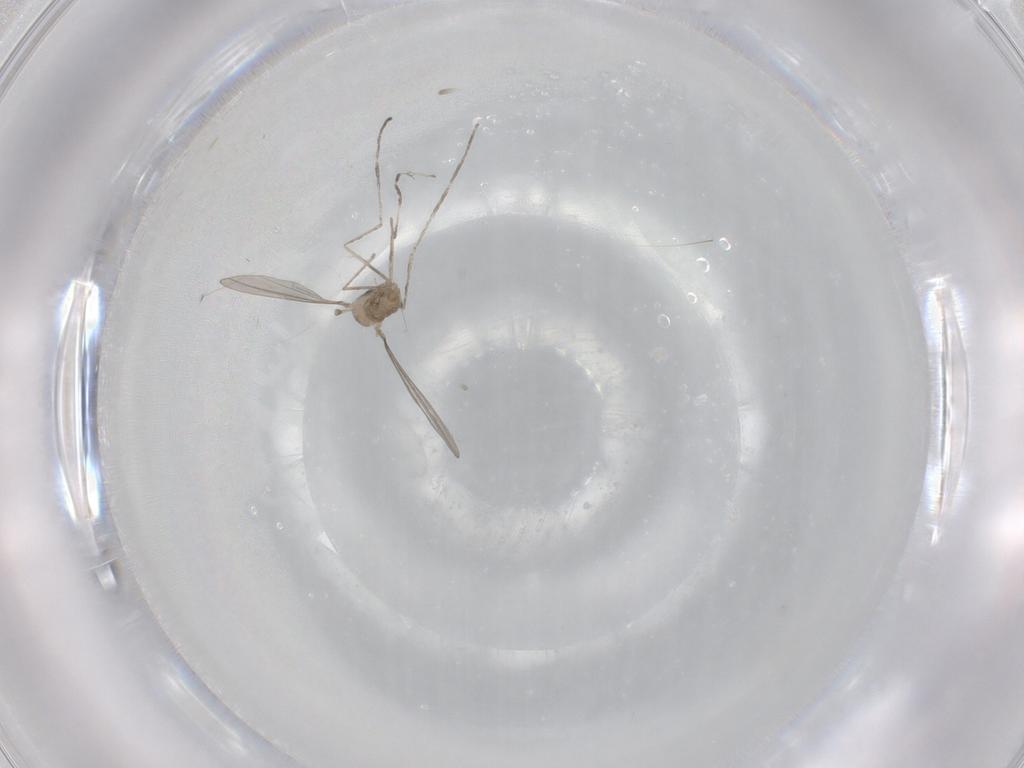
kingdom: Animalia
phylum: Arthropoda
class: Insecta
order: Diptera
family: Cecidomyiidae
